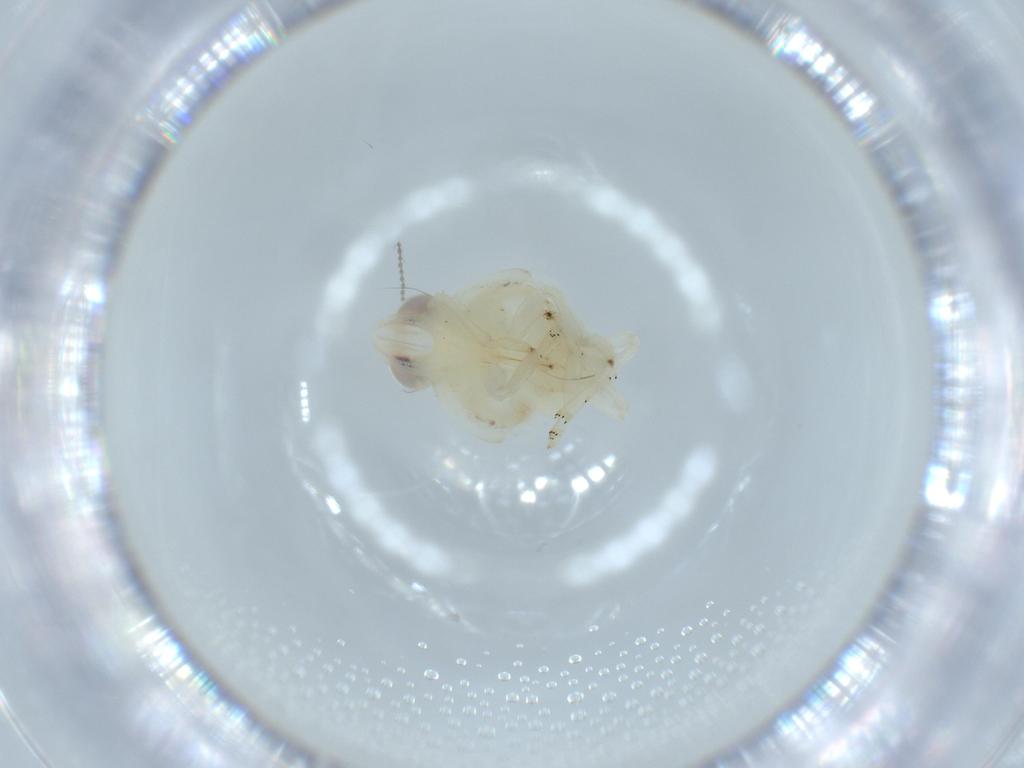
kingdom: Animalia
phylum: Arthropoda
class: Insecta
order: Hemiptera
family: Nogodinidae
